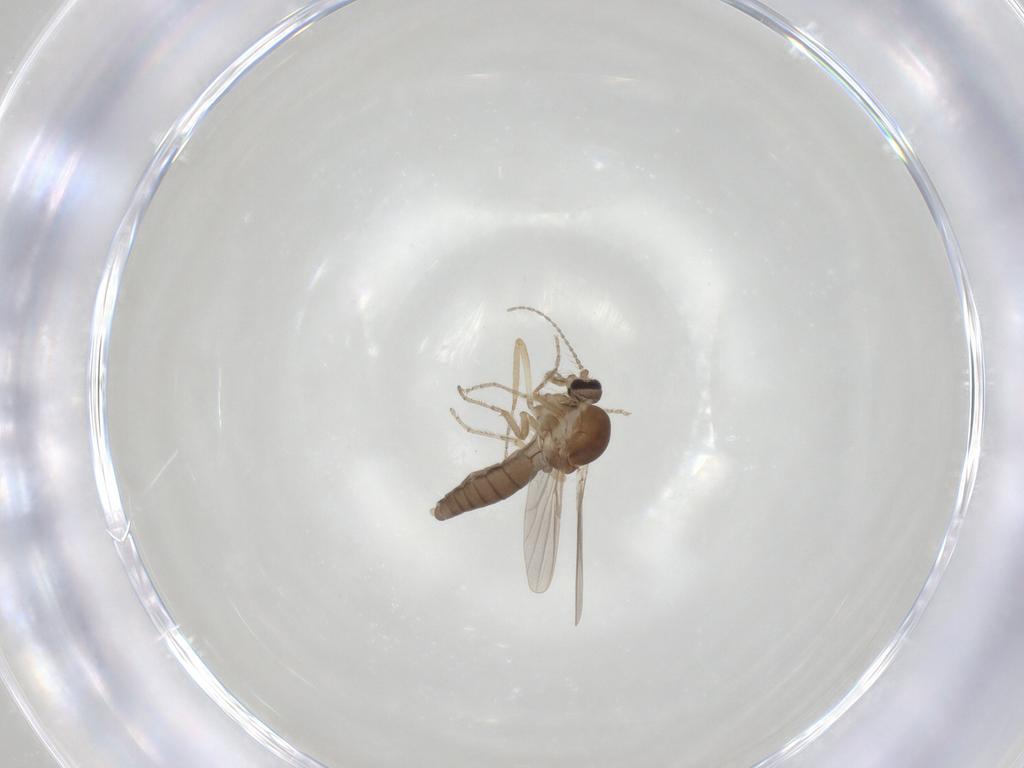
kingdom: Animalia
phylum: Arthropoda
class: Insecta
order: Diptera
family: Ceratopogonidae
